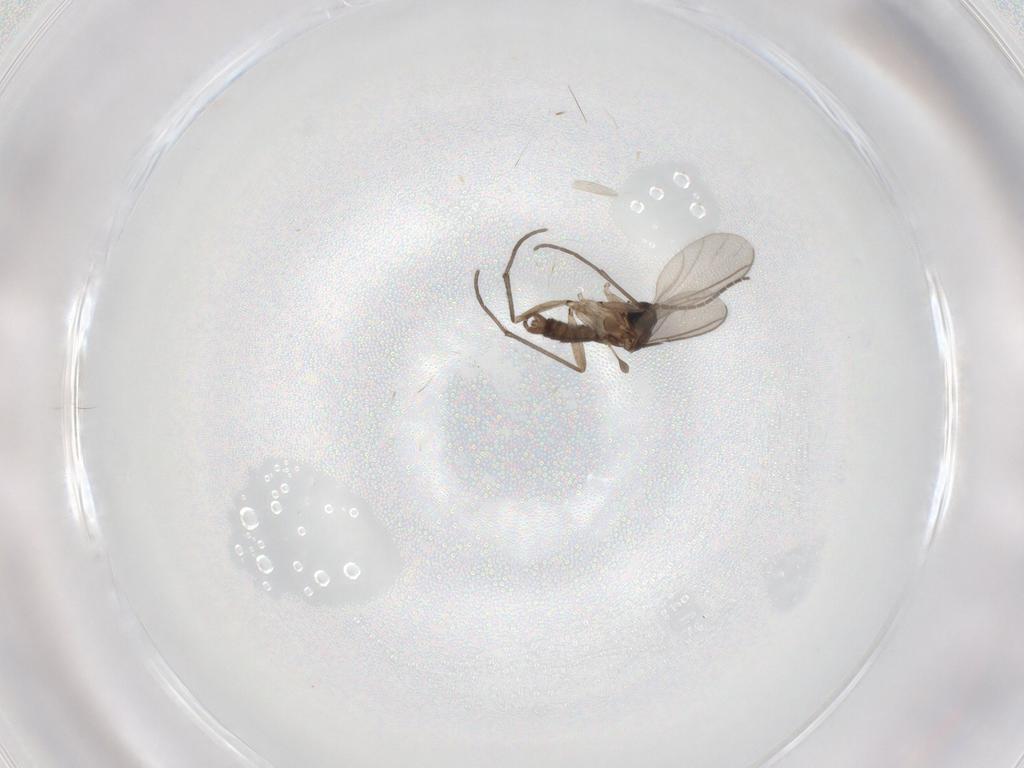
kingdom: Animalia
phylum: Arthropoda
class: Insecta
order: Diptera
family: Sciaridae
